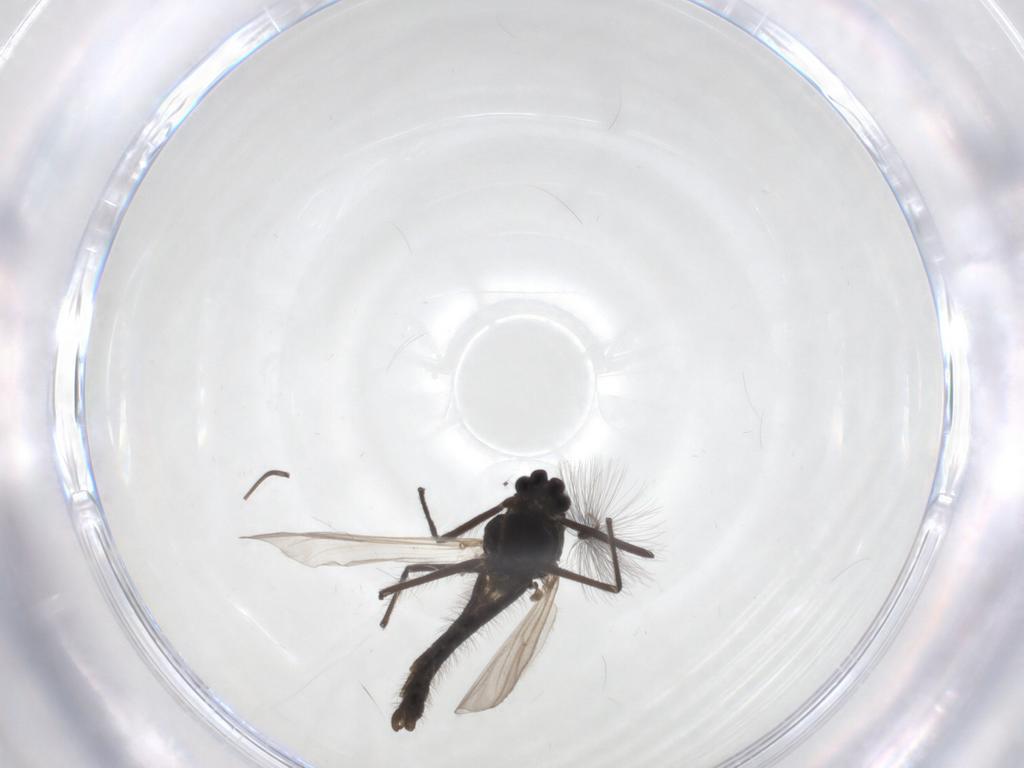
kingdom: Animalia
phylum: Arthropoda
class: Insecta
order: Diptera
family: Chironomidae
